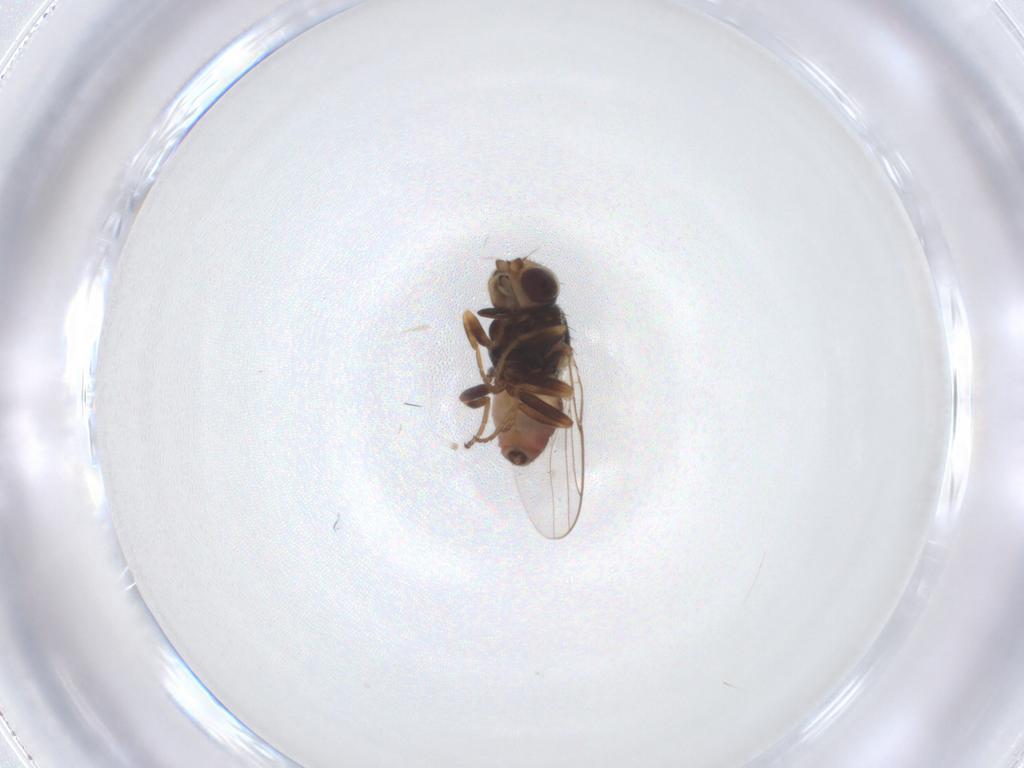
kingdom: Animalia
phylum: Arthropoda
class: Insecta
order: Diptera
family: Chloropidae
